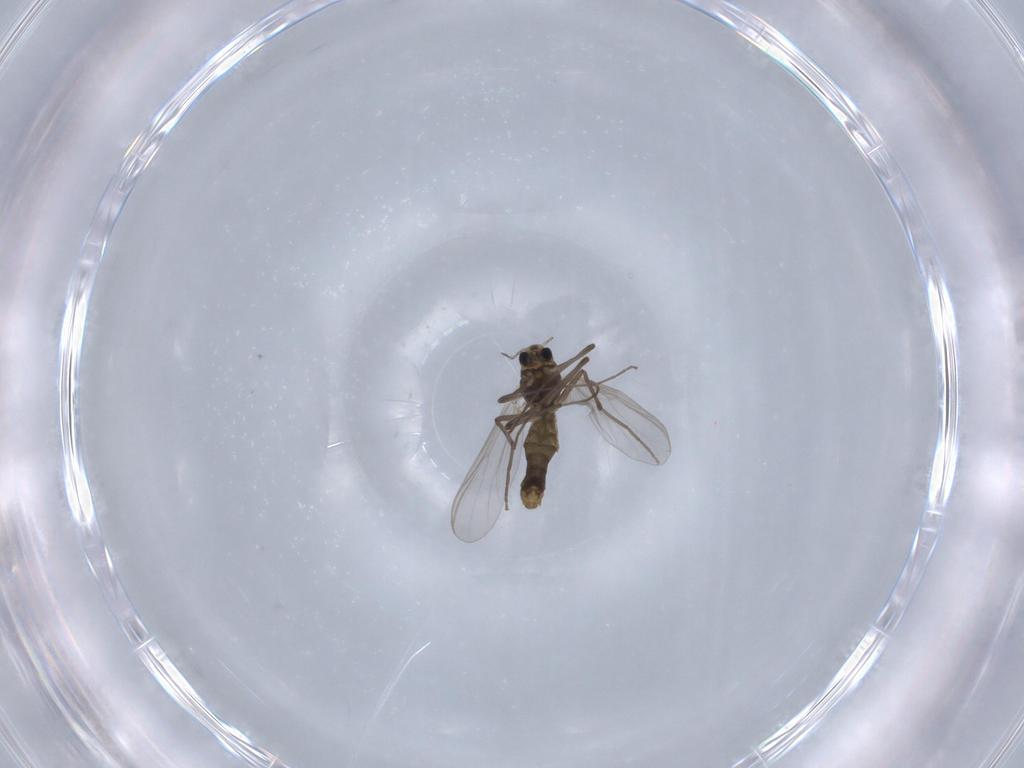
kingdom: Animalia
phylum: Arthropoda
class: Insecta
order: Diptera
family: Chironomidae
